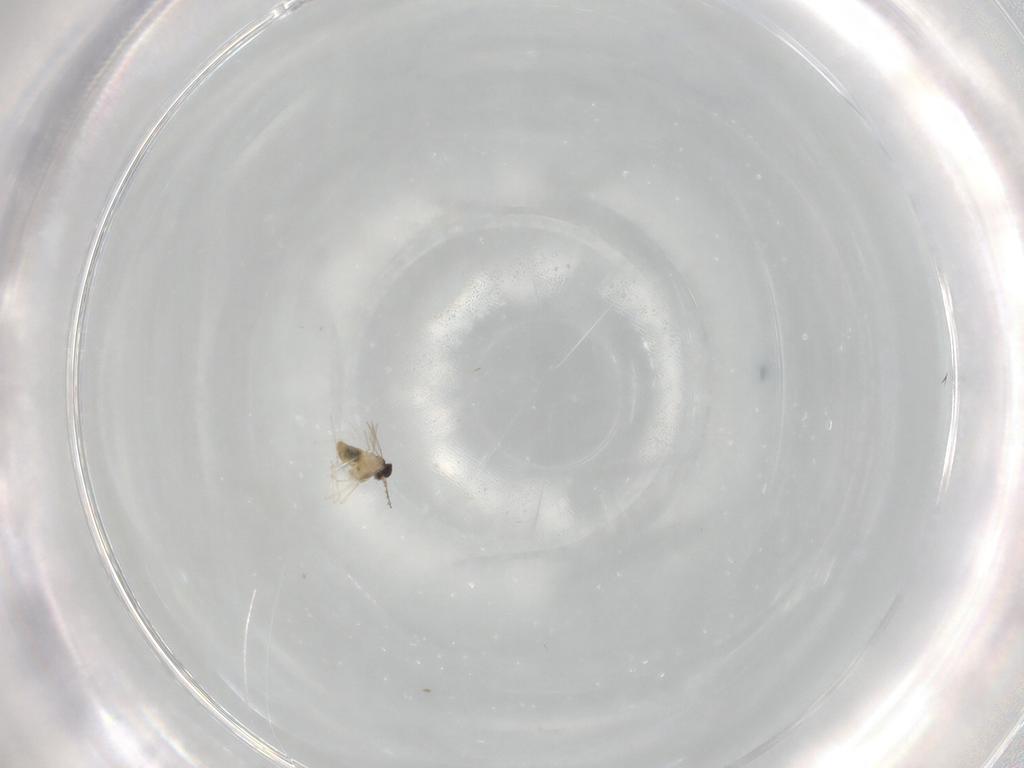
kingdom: Animalia
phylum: Arthropoda
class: Insecta
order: Diptera
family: Cecidomyiidae
